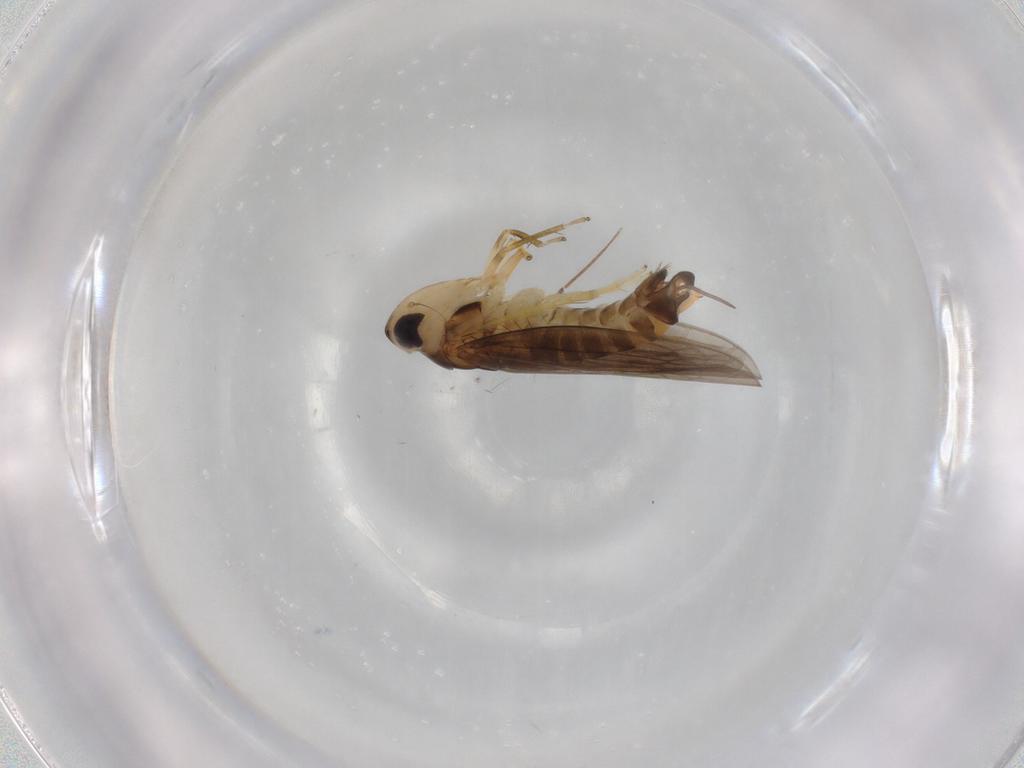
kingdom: Animalia
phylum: Arthropoda
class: Insecta
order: Hemiptera
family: Cicadellidae
